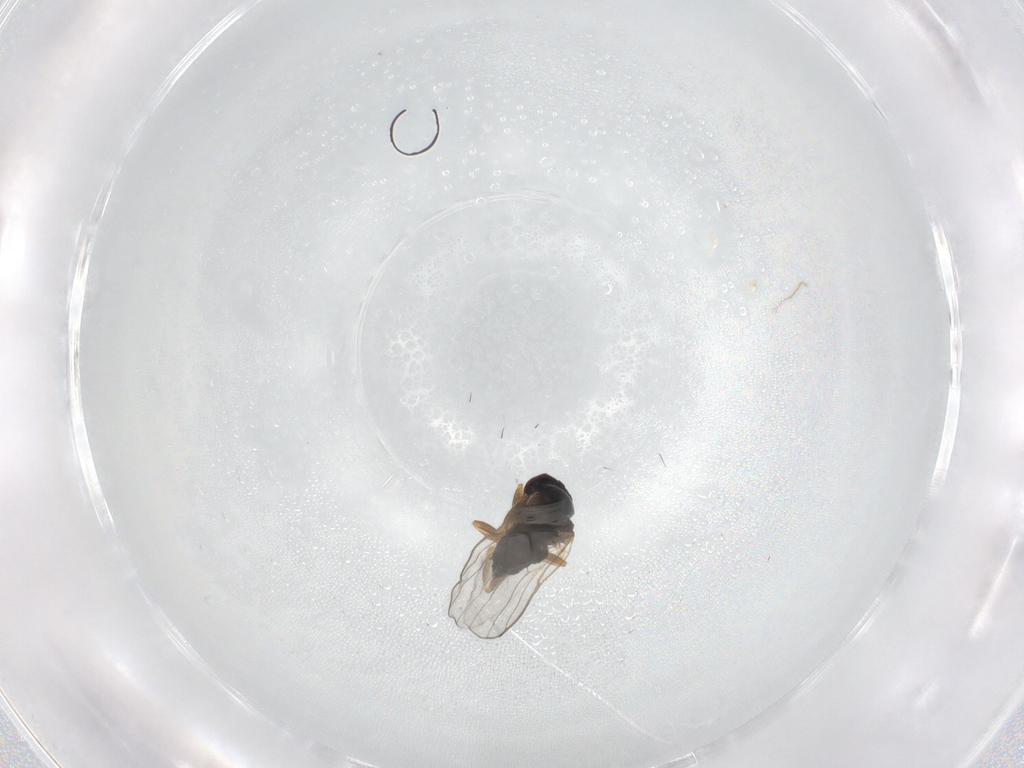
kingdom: Animalia
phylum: Arthropoda
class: Insecta
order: Diptera
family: Chloropidae
